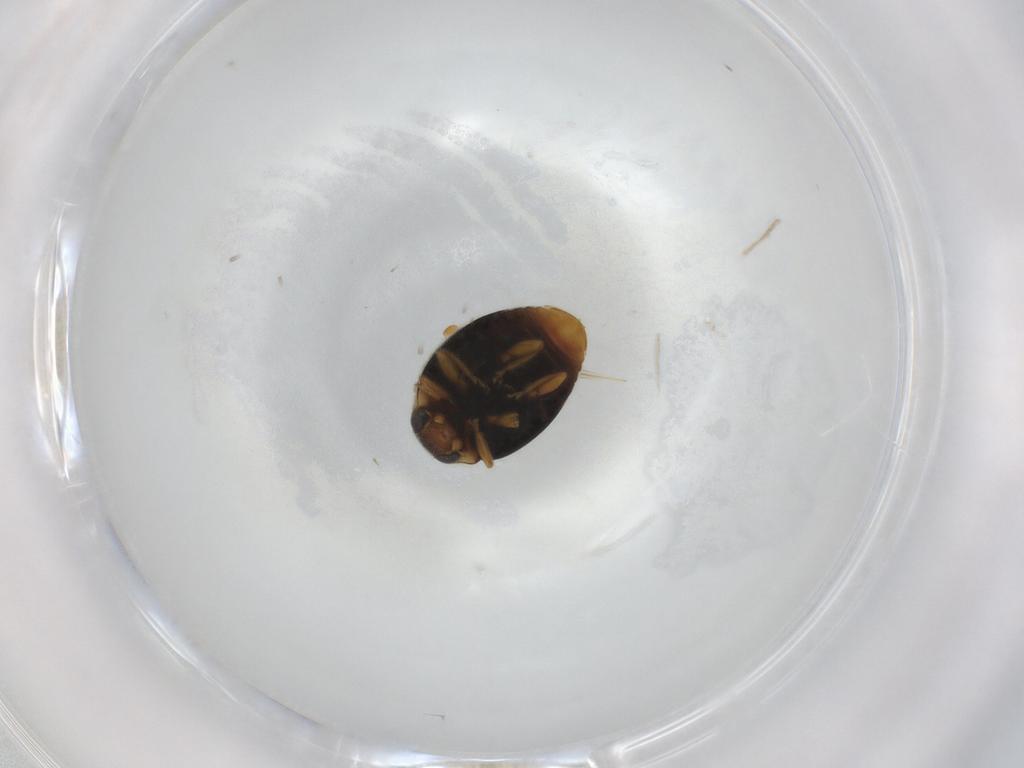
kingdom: Animalia
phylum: Arthropoda
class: Insecta
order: Coleoptera
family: Coccinellidae
